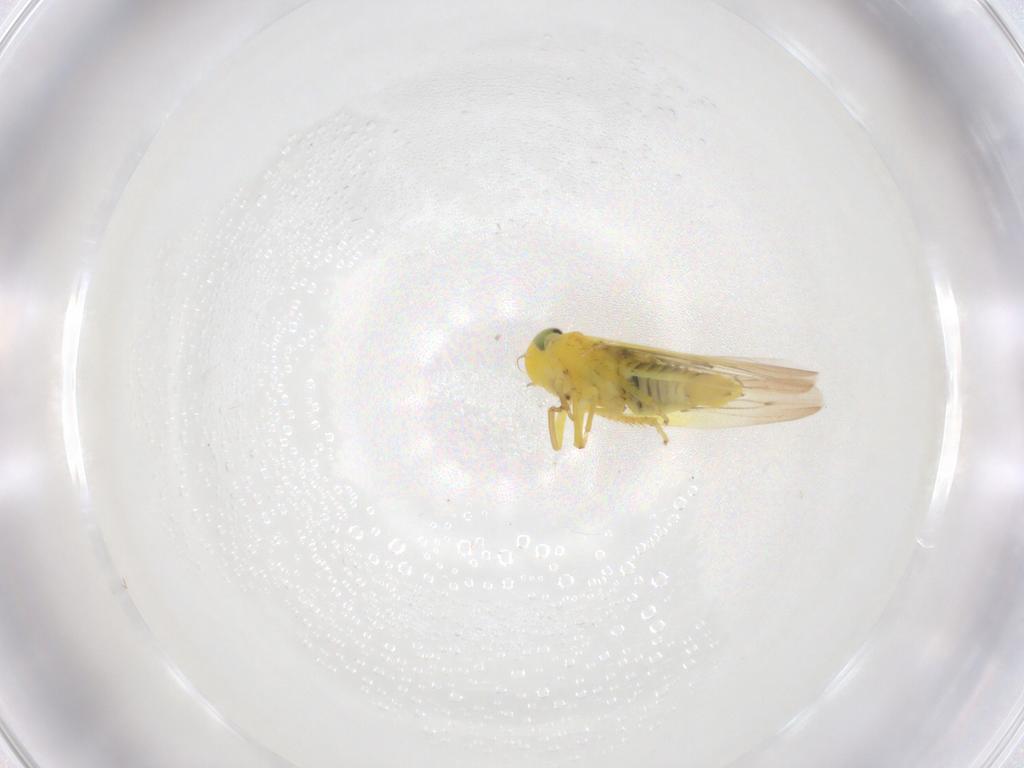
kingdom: Animalia
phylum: Arthropoda
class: Insecta
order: Hemiptera
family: Cicadellidae
